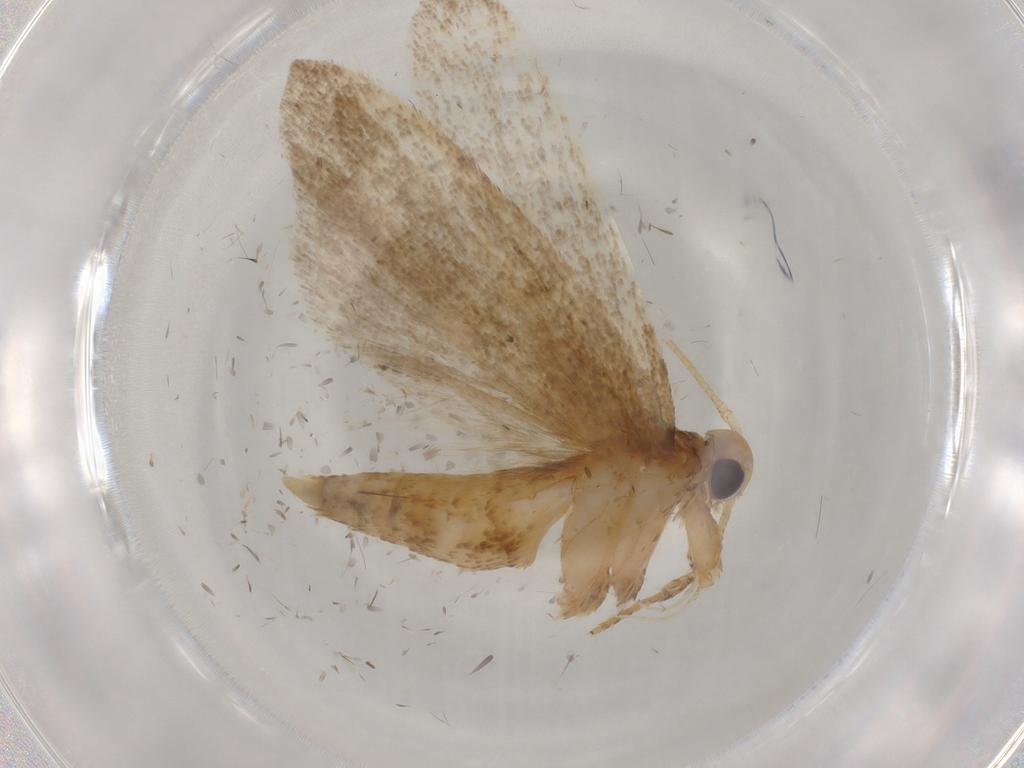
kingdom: Animalia
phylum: Arthropoda
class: Insecta
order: Lepidoptera
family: Autostichidae
